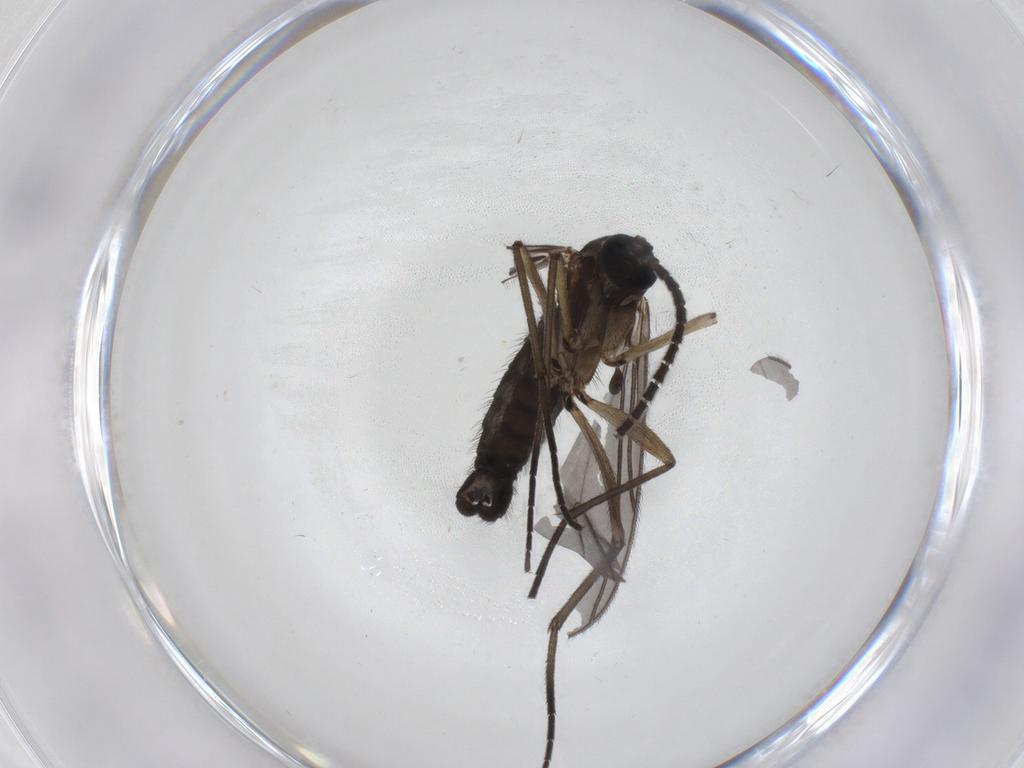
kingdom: Animalia
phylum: Arthropoda
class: Insecta
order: Diptera
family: Sciaridae
